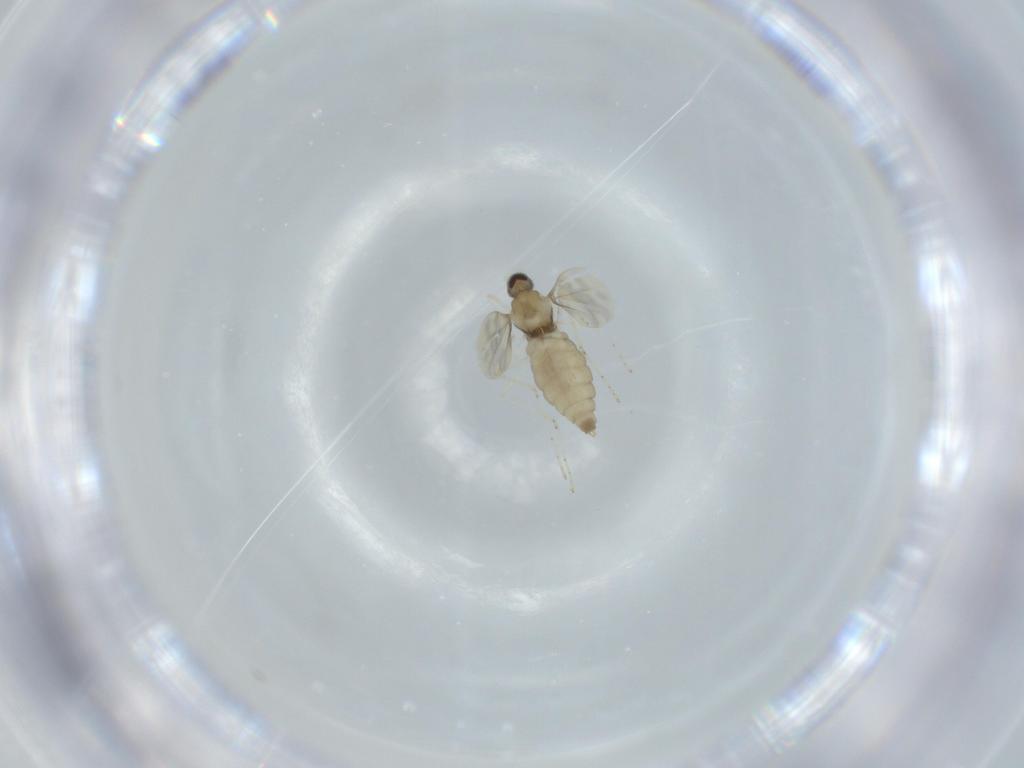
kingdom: Animalia
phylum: Arthropoda
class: Insecta
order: Diptera
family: Cecidomyiidae
